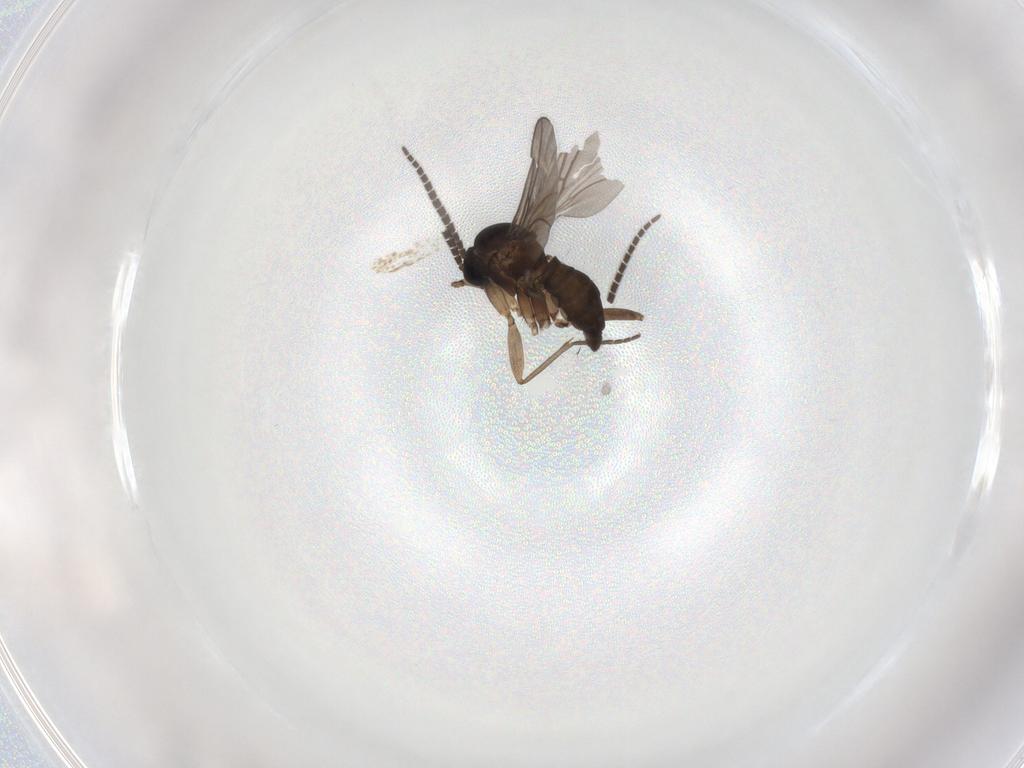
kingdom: Animalia
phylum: Arthropoda
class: Insecta
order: Diptera
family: Sciaridae
